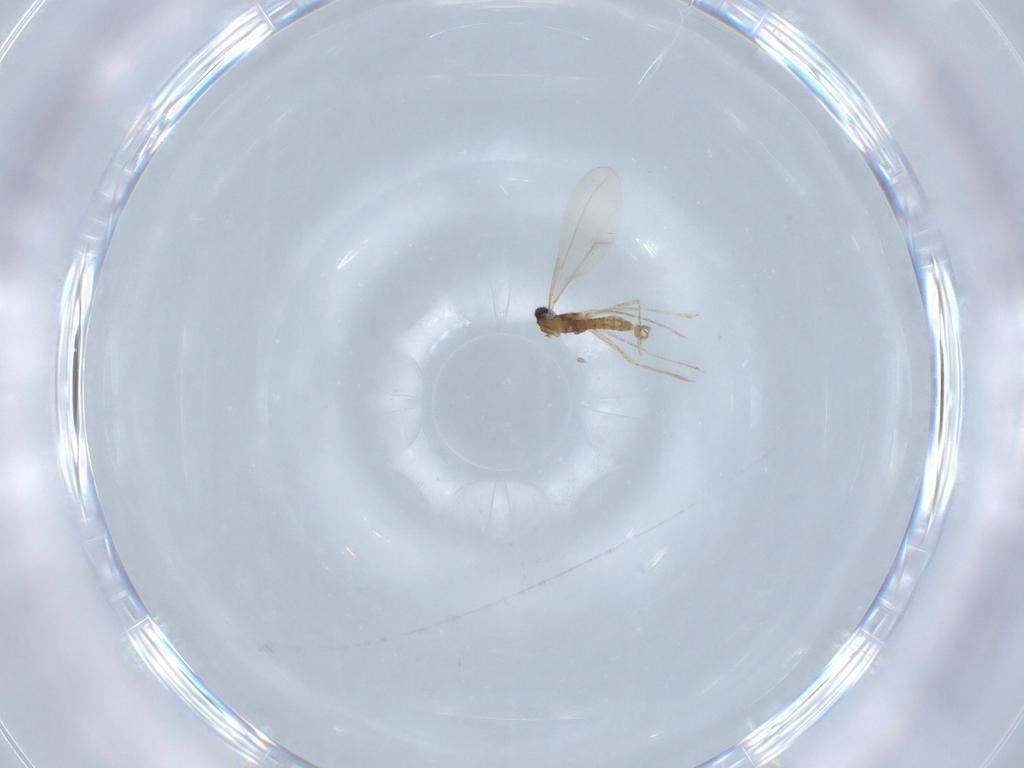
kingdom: Animalia
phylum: Arthropoda
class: Insecta
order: Diptera
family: Cecidomyiidae
